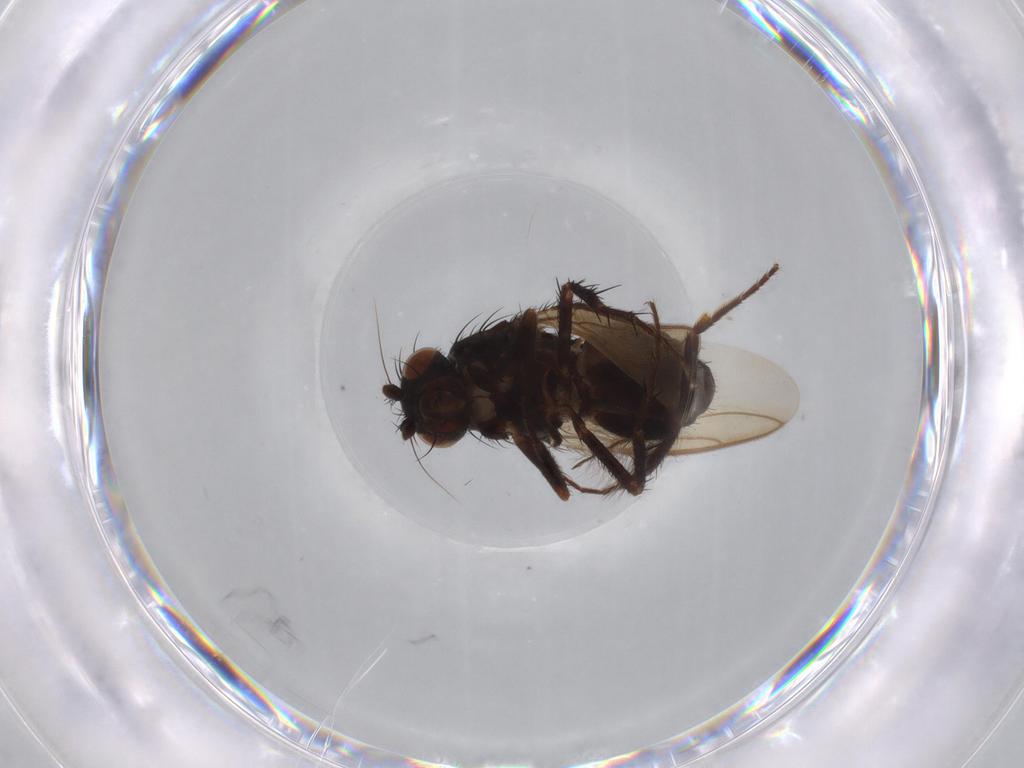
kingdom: Animalia
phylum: Arthropoda
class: Insecta
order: Diptera
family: Sphaeroceridae
